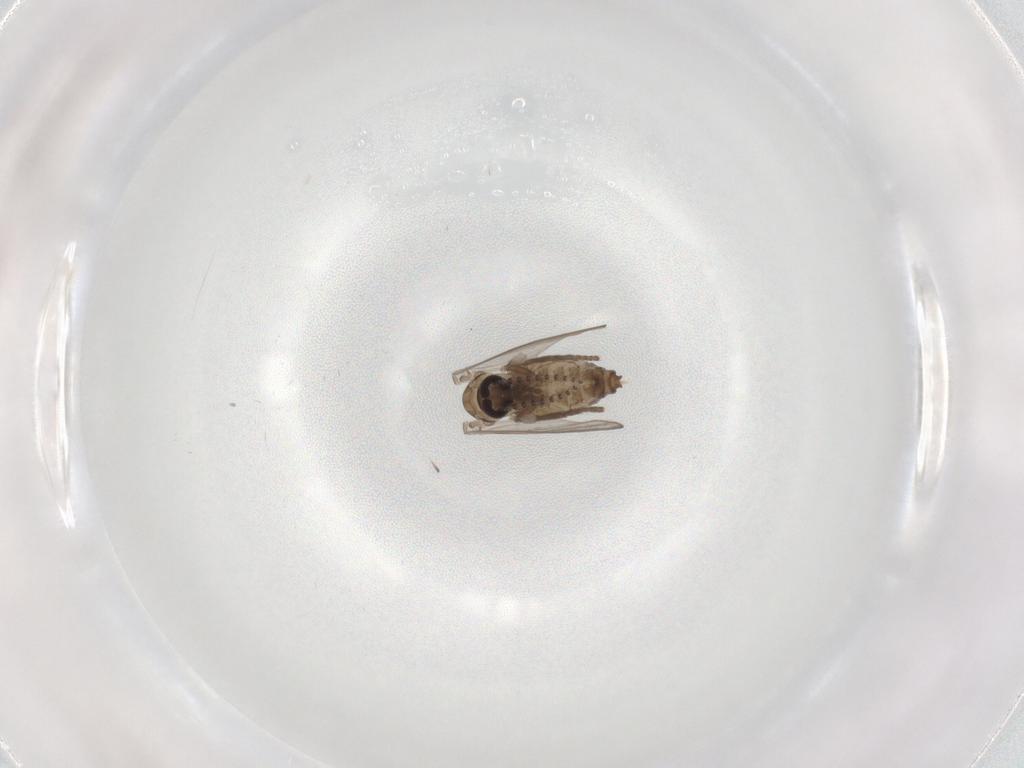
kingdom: Animalia
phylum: Arthropoda
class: Insecta
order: Diptera
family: Psychodidae
